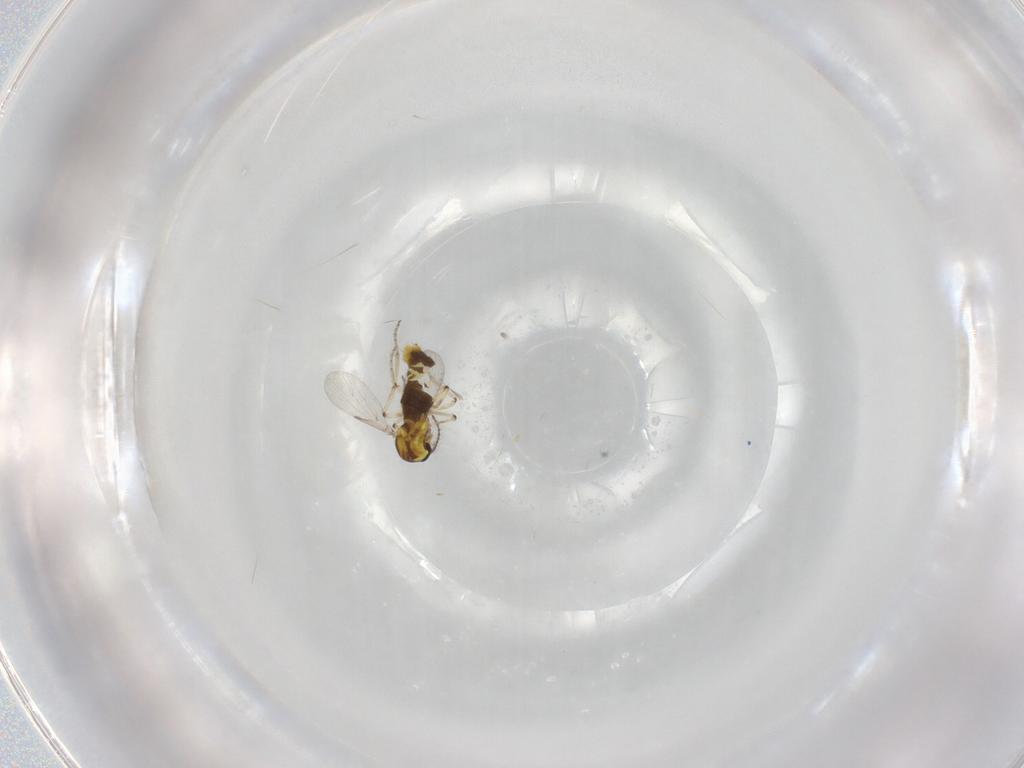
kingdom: Animalia
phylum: Arthropoda
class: Insecta
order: Diptera
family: Ceratopogonidae
